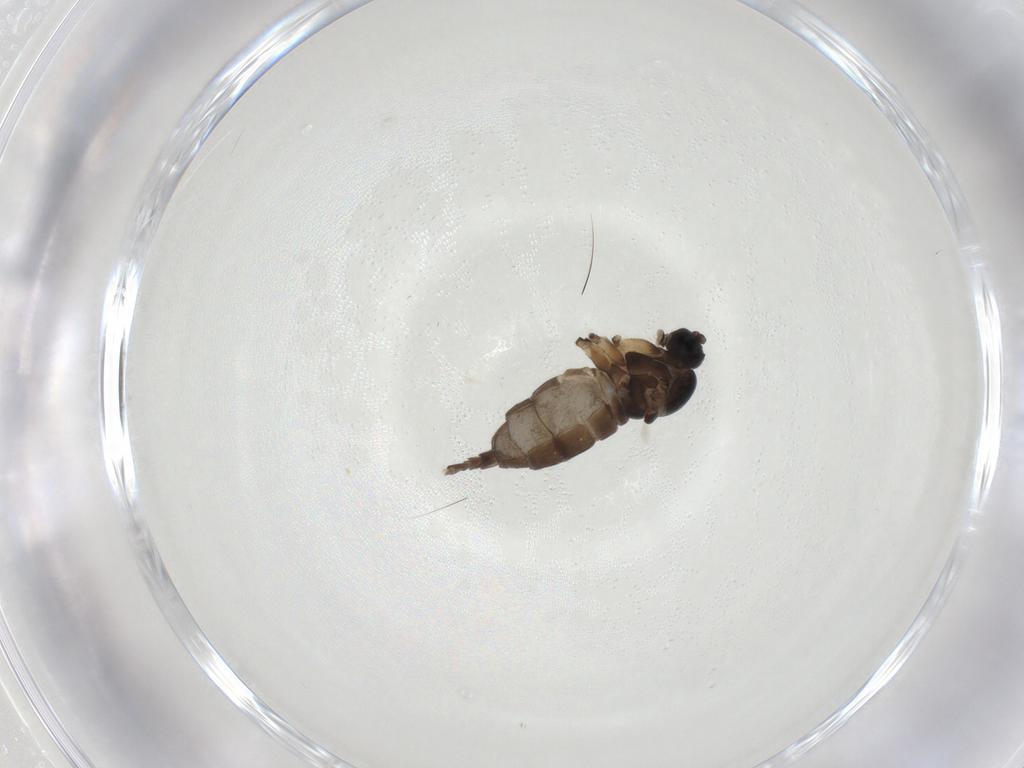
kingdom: Animalia
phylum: Arthropoda
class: Insecta
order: Diptera
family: Sciaridae
